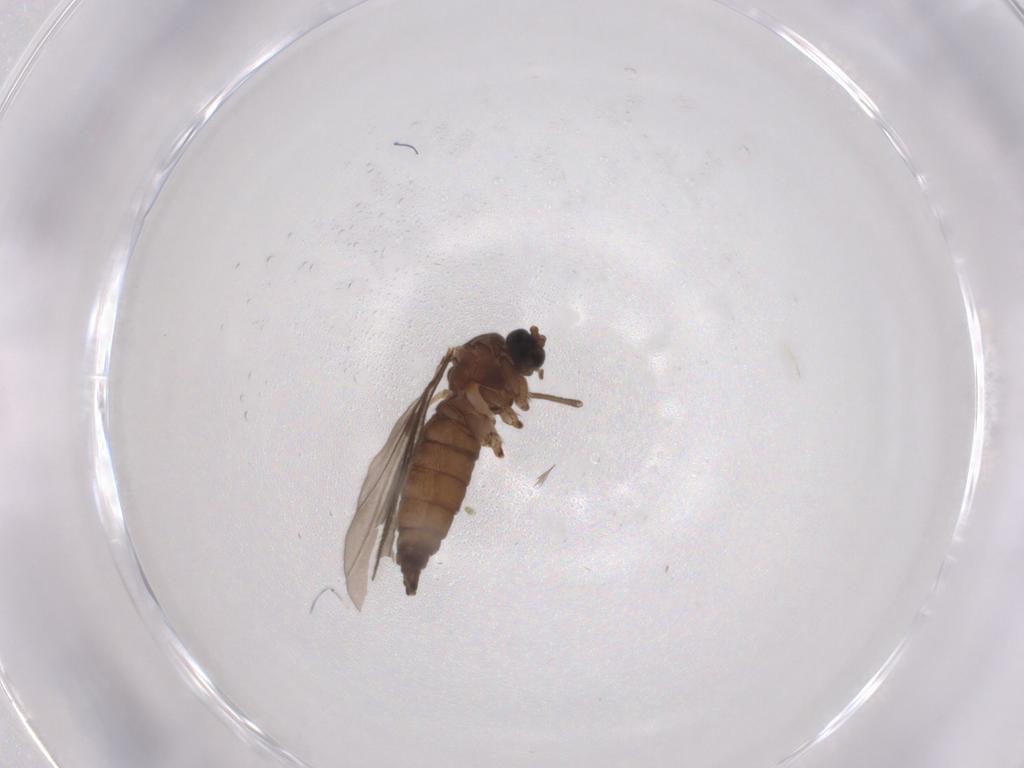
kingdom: Animalia
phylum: Arthropoda
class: Insecta
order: Diptera
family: Sciaridae
